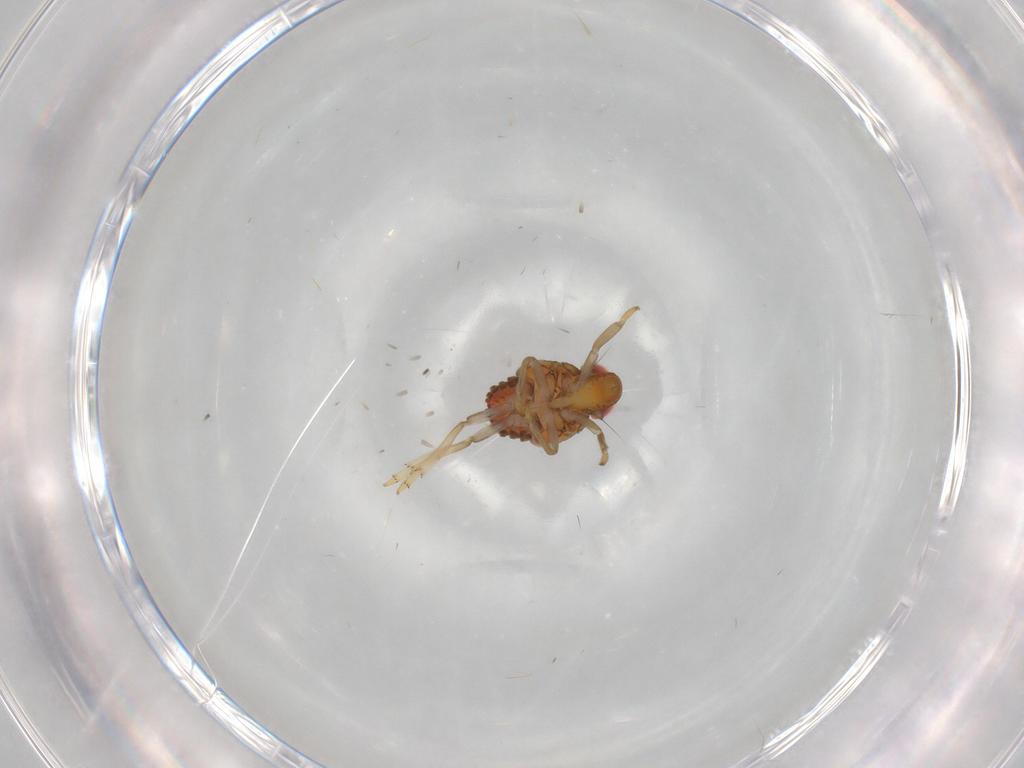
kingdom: Animalia
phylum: Arthropoda
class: Insecta
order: Hemiptera
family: Issidae
